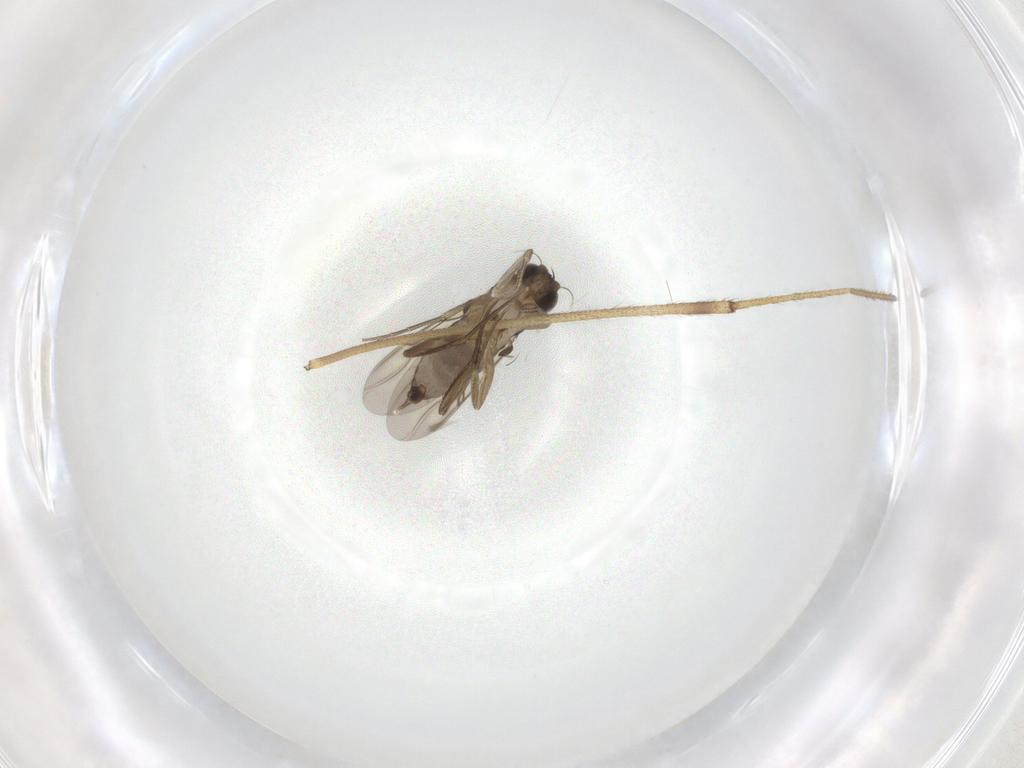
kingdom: Animalia
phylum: Arthropoda
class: Insecta
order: Diptera
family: Phoridae
